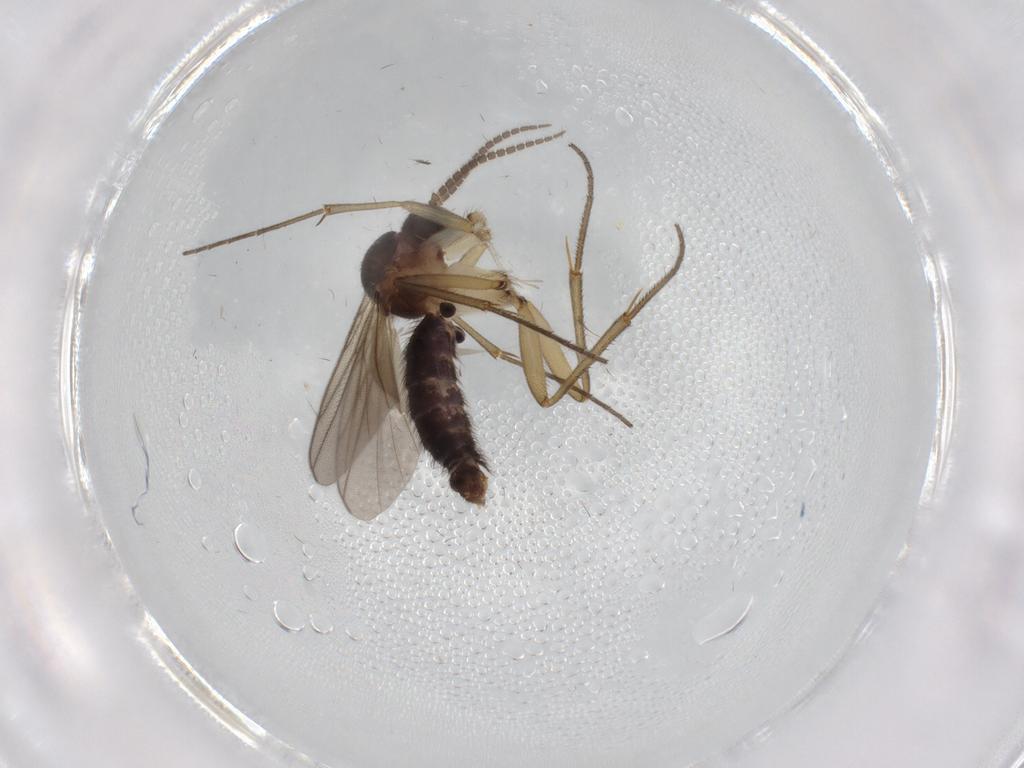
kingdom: Animalia
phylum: Arthropoda
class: Insecta
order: Diptera
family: Mycetophilidae
